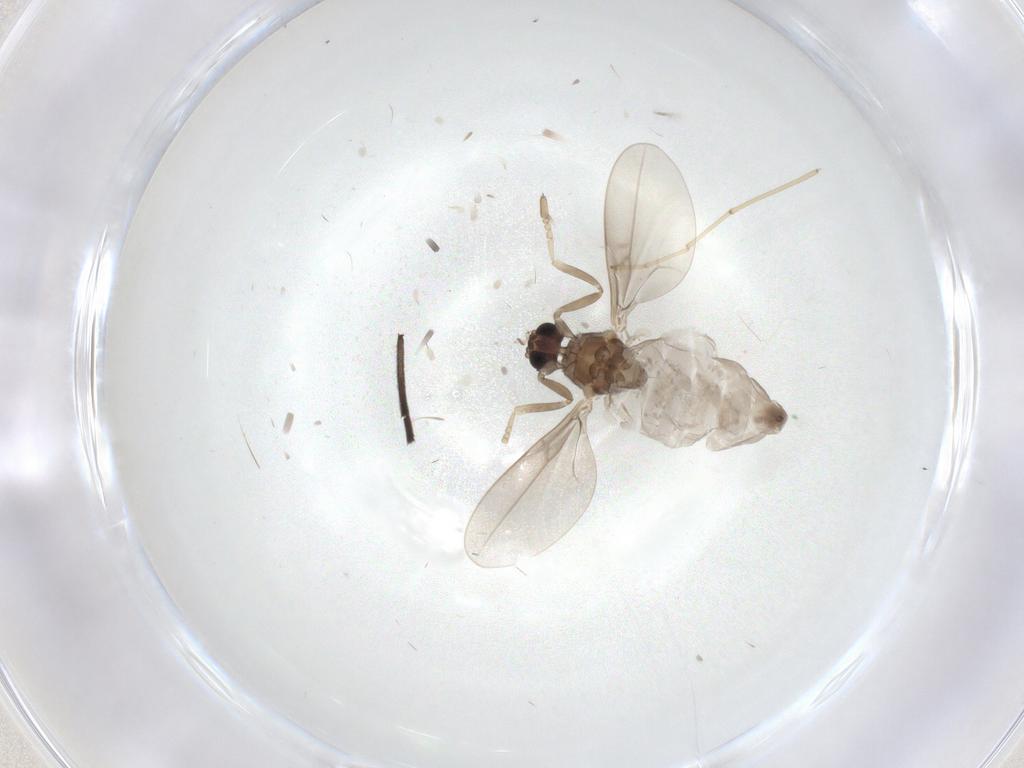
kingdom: Animalia
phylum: Arthropoda
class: Insecta
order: Diptera
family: Cecidomyiidae
